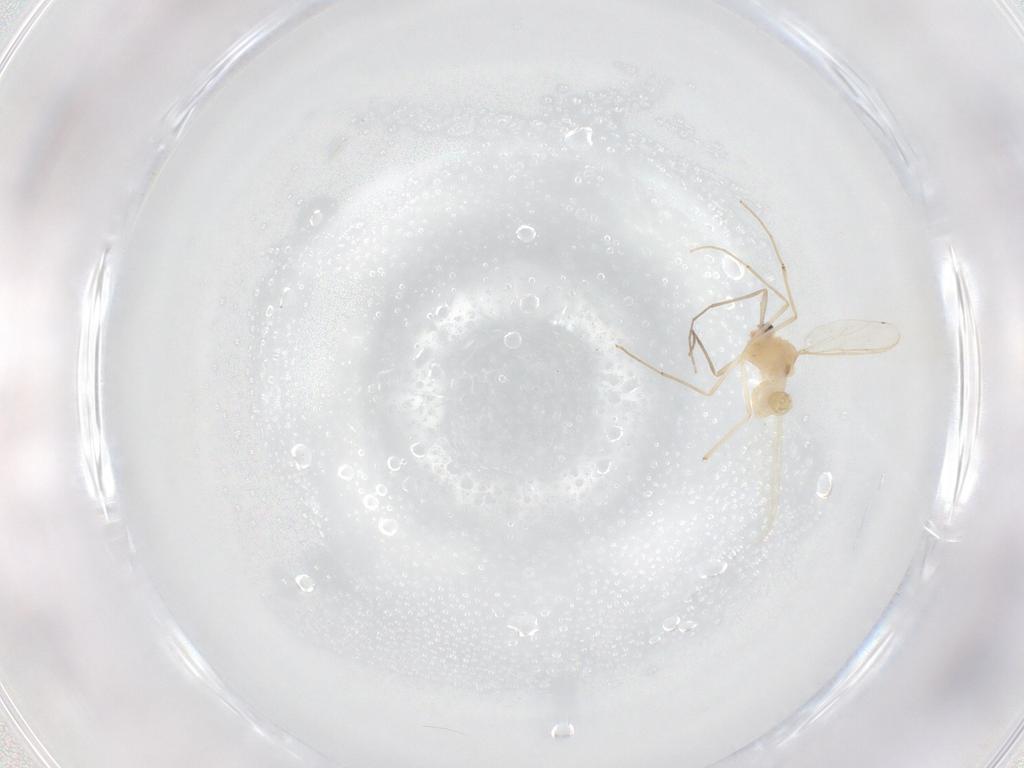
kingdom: Animalia
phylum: Arthropoda
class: Insecta
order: Diptera
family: Chironomidae
